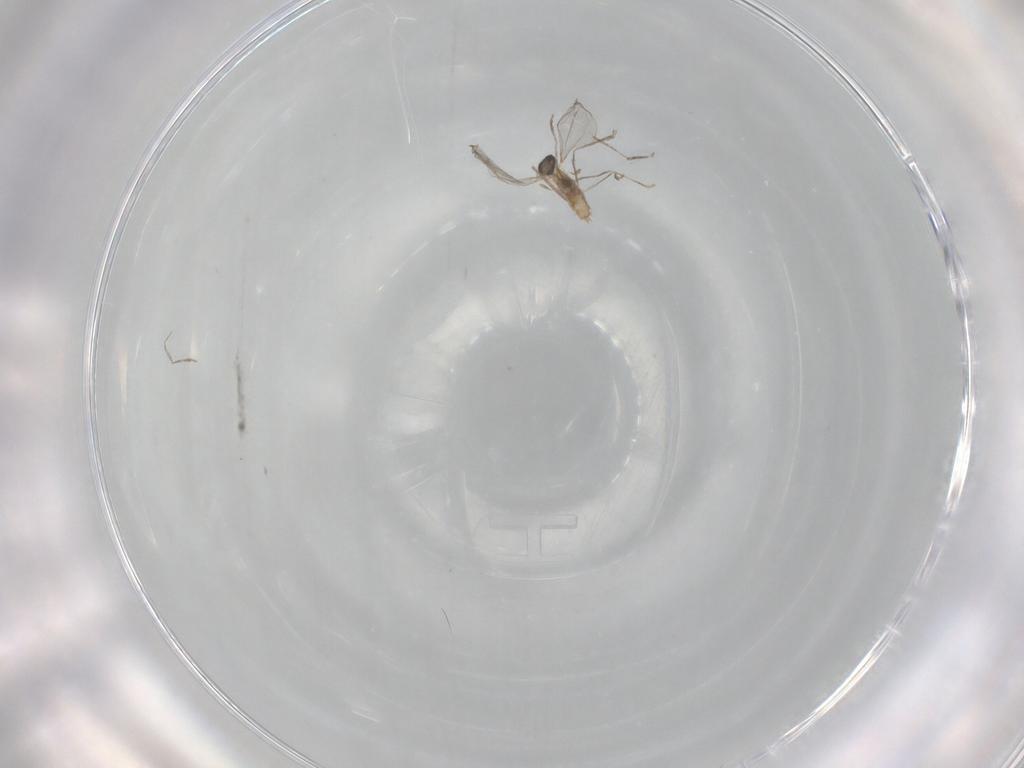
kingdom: Animalia
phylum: Arthropoda
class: Insecta
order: Diptera
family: Cecidomyiidae
